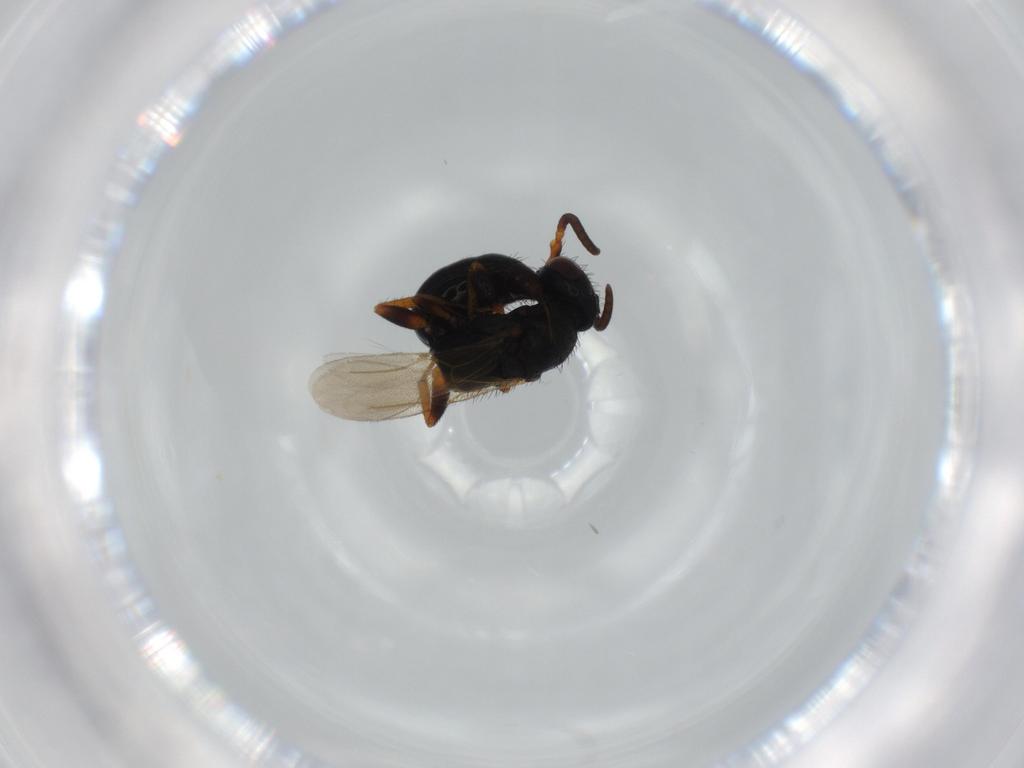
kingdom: Animalia
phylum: Arthropoda
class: Insecta
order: Hymenoptera
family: Bethylidae
